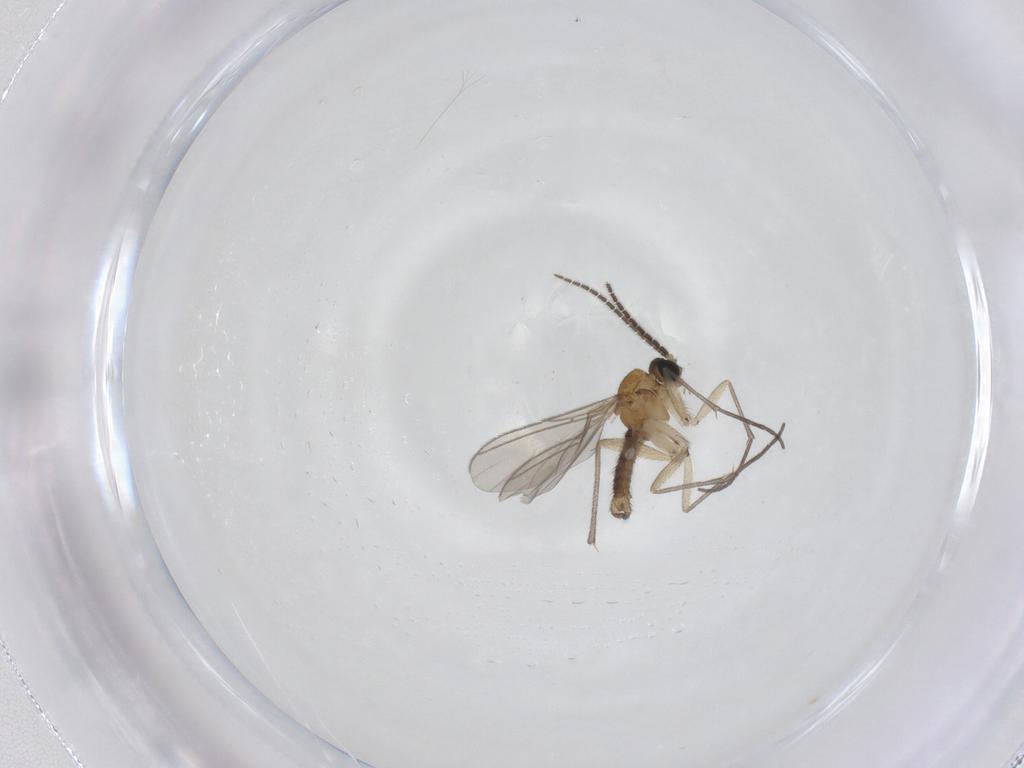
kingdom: Animalia
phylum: Arthropoda
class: Insecta
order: Diptera
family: Sciaridae
